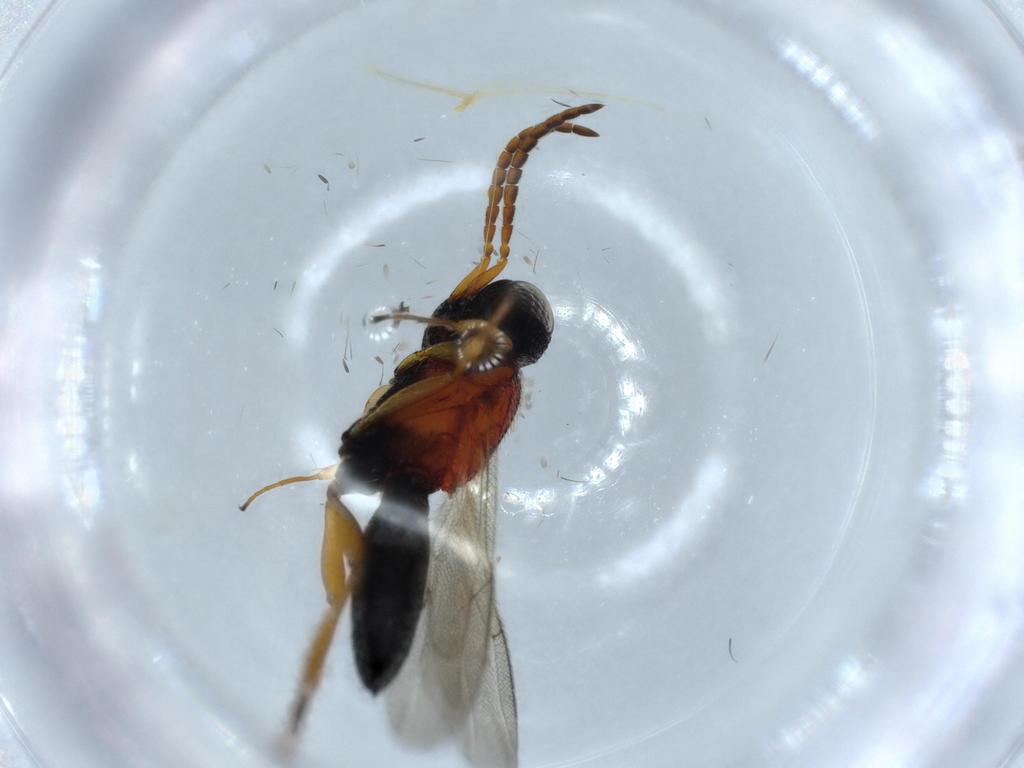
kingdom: Animalia
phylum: Arthropoda
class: Insecta
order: Hymenoptera
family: Scelionidae
